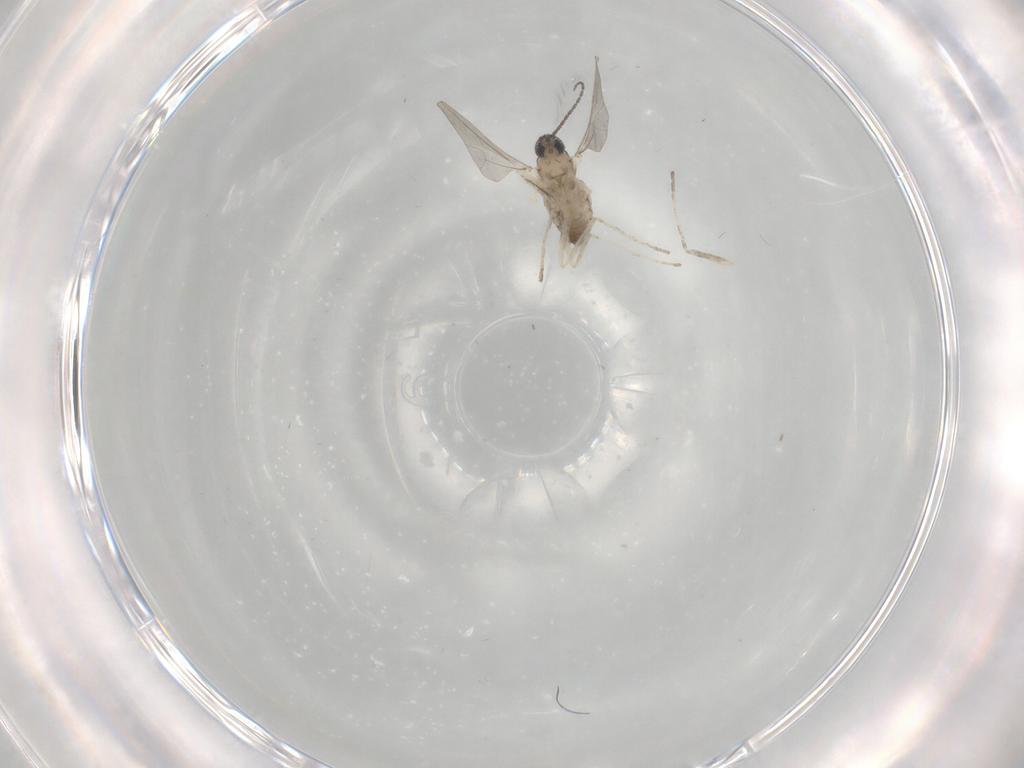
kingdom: Animalia
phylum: Arthropoda
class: Insecta
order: Diptera
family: Cecidomyiidae
